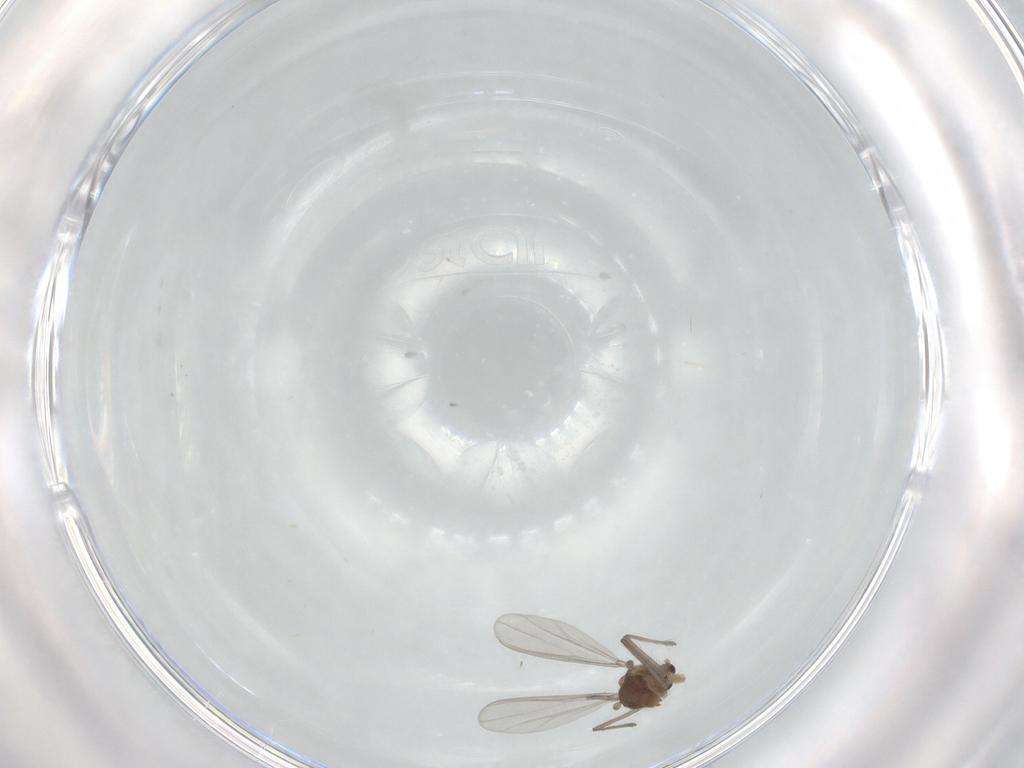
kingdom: Animalia
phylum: Arthropoda
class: Insecta
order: Diptera
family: Chironomidae
